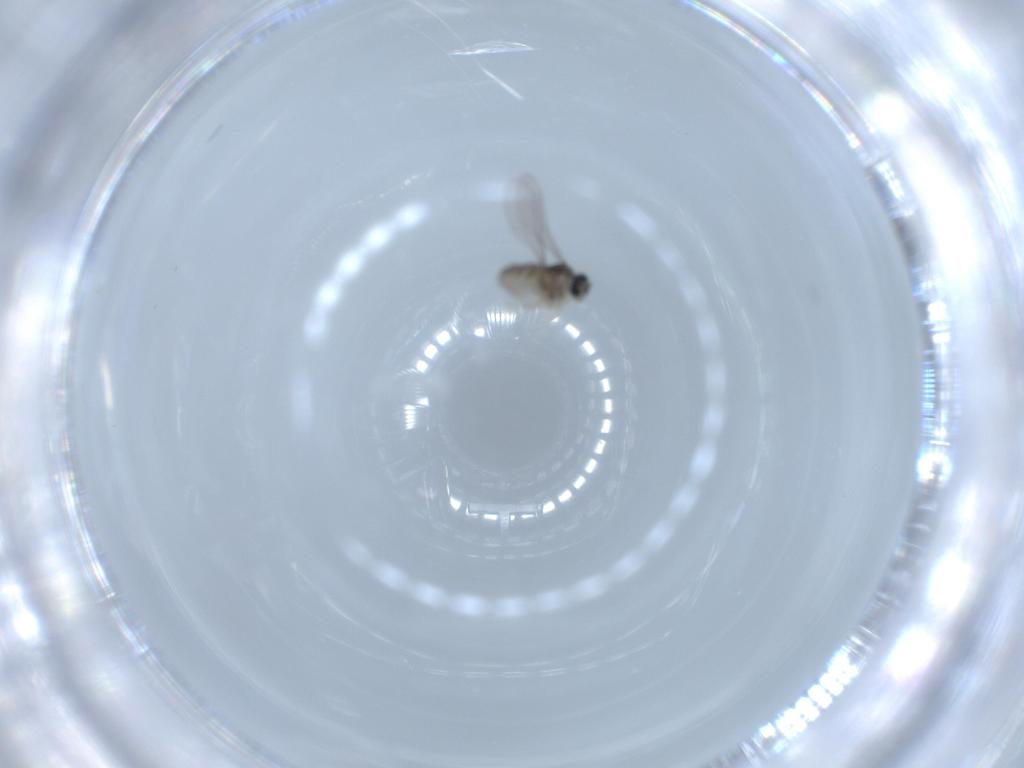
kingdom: Animalia
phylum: Arthropoda
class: Insecta
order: Diptera
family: Cecidomyiidae
